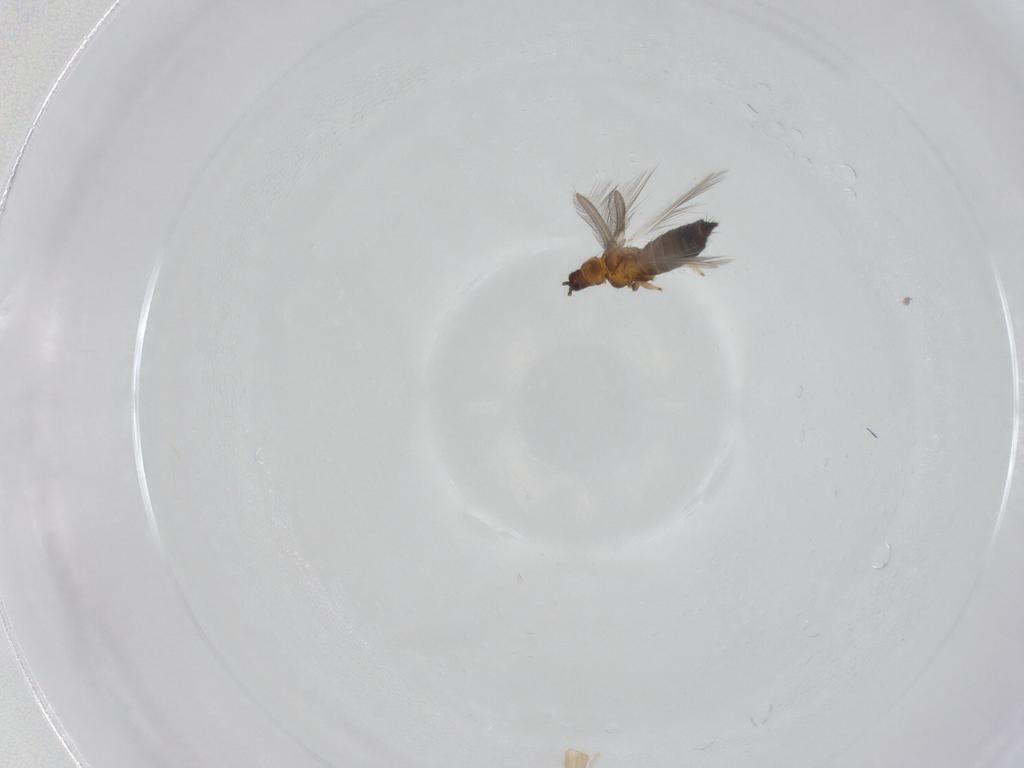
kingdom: Animalia
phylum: Arthropoda
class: Insecta
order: Thysanoptera
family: Thripidae
